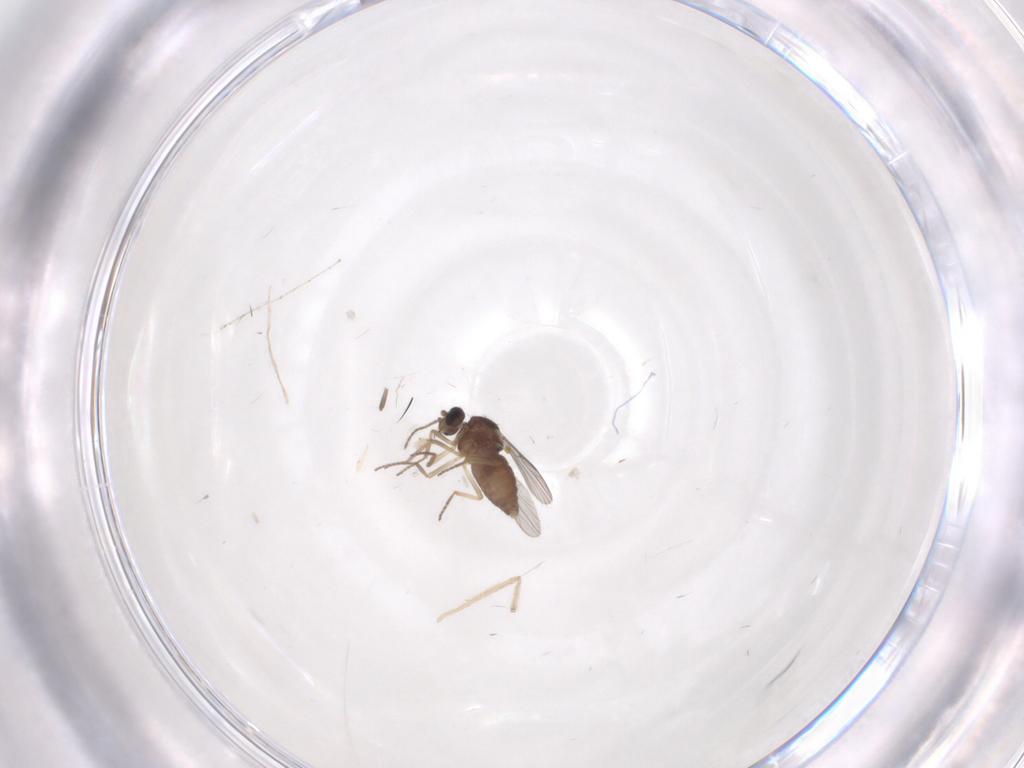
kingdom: Animalia
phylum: Arthropoda
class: Insecta
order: Diptera
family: Ceratopogonidae
